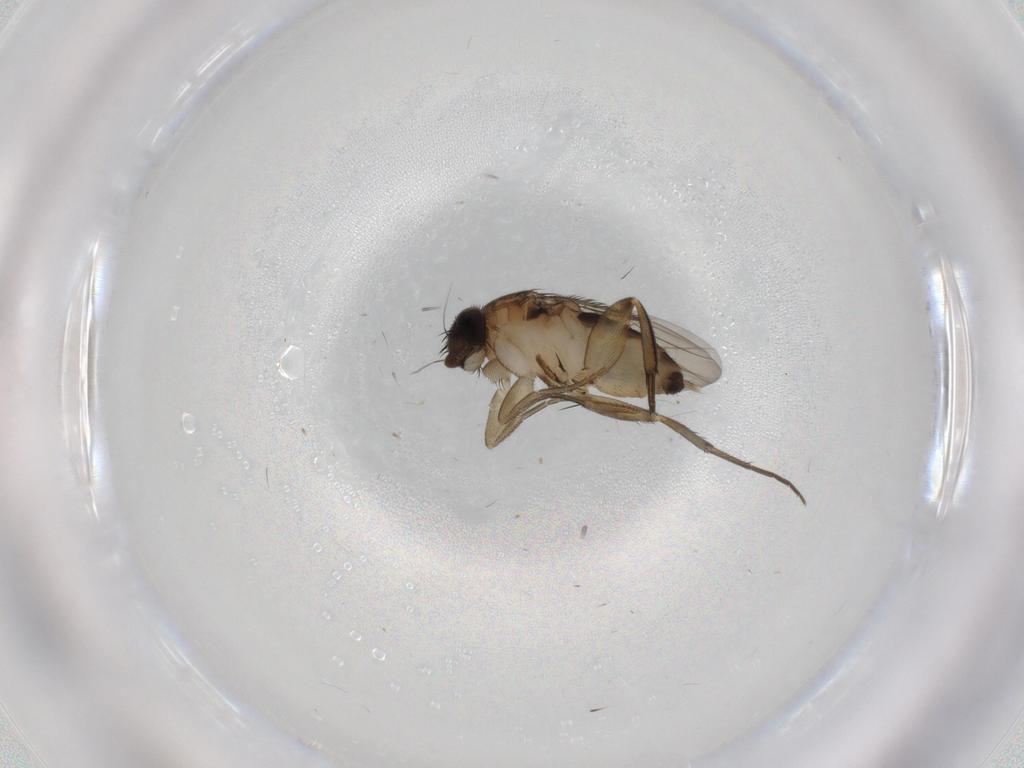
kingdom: Animalia
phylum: Arthropoda
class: Insecta
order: Diptera
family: Phoridae
